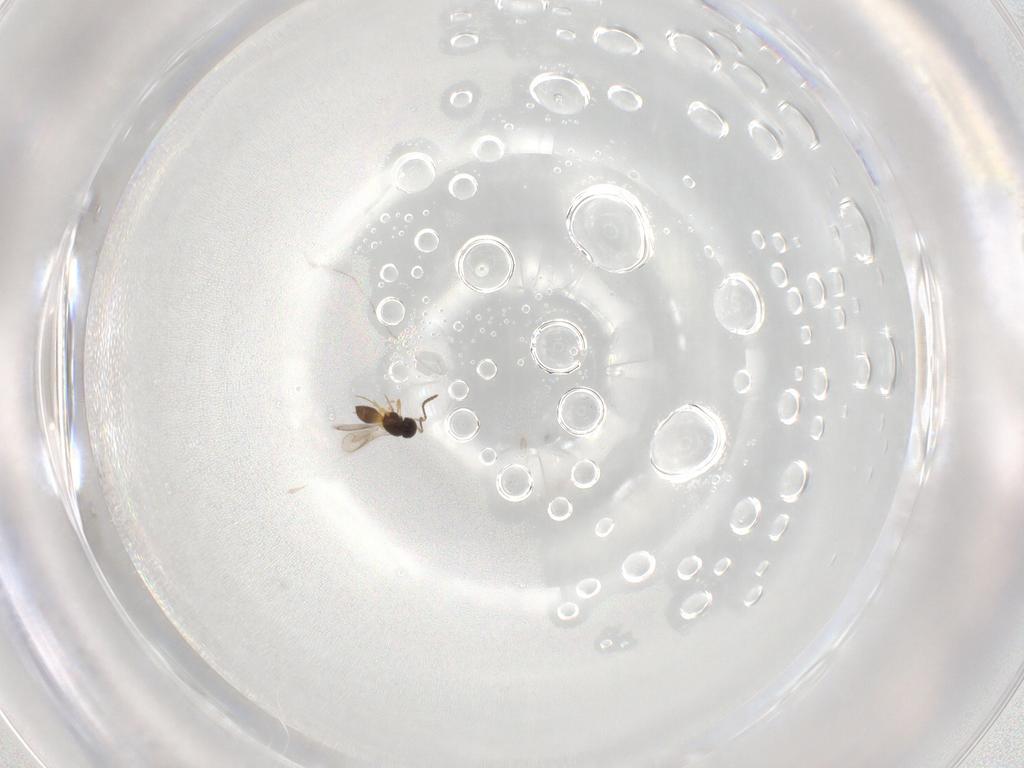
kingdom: Animalia
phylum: Arthropoda
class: Insecta
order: Hymenoptera
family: Scelionidae
